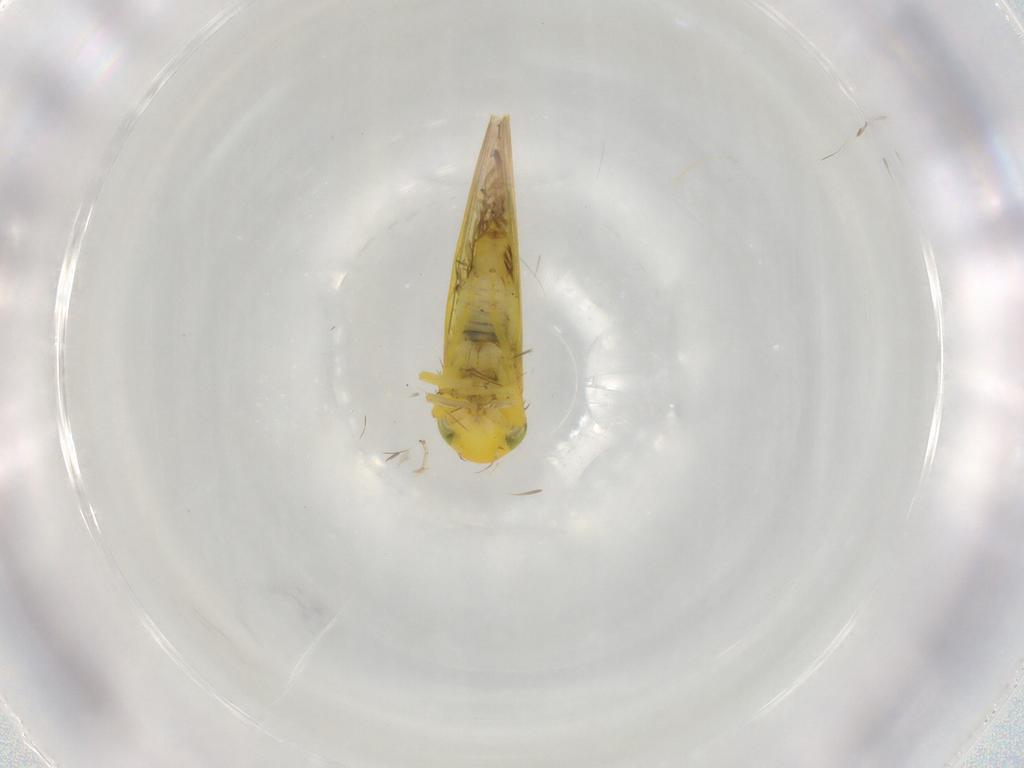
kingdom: Animalia
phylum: Arthropoda
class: Insecta
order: Hemiptera
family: Cicadellidae
